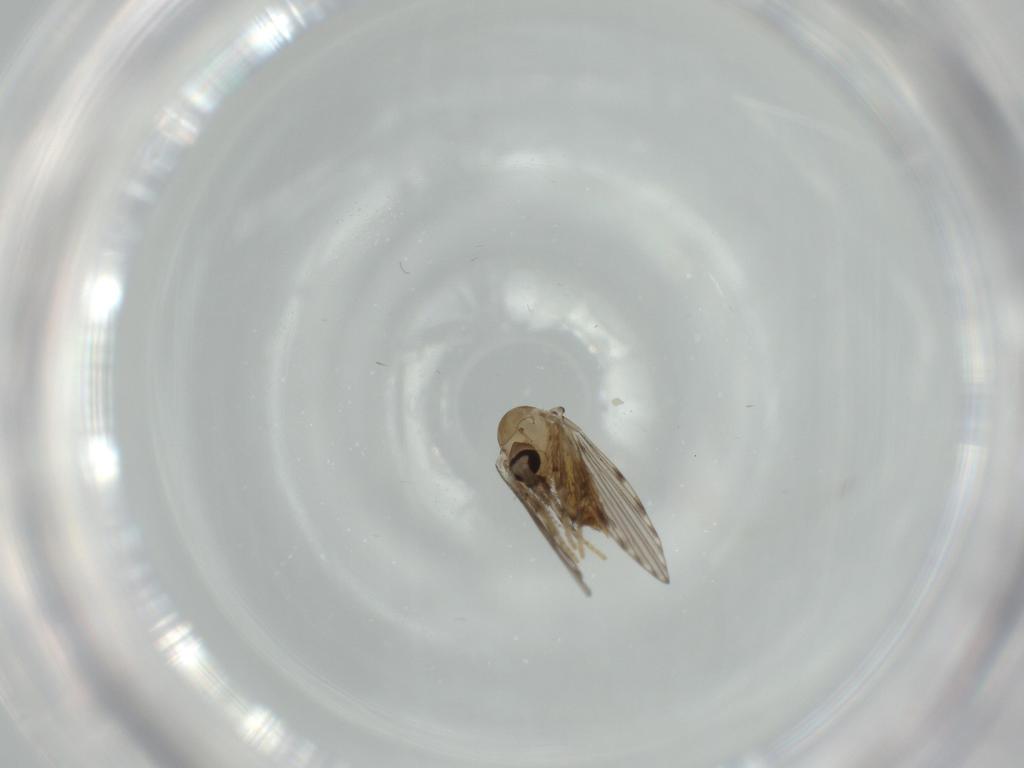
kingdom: Animalia
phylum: Arthropoda
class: Insecta
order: Diptera
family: Psychodidae
